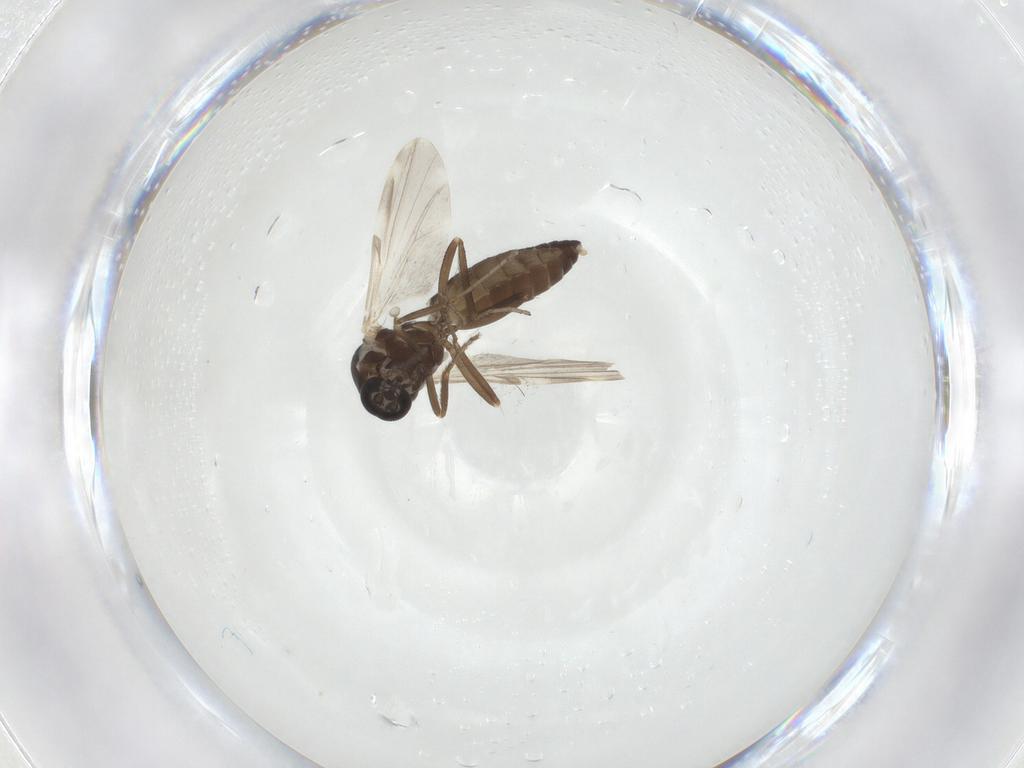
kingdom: Animalia
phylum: Arthropoda
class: Insecta
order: Diptera
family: Ceratopogonidae
